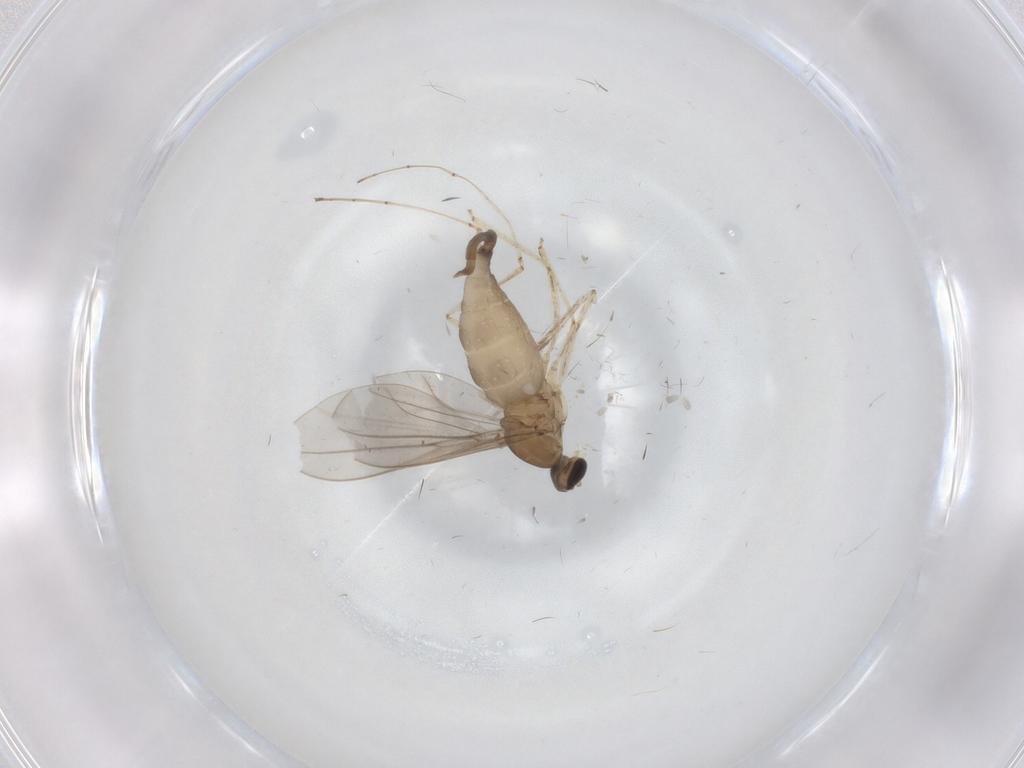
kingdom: Animalia
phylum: Arthropoda
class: Insecta
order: Diptera
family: Cecidomyiidae
